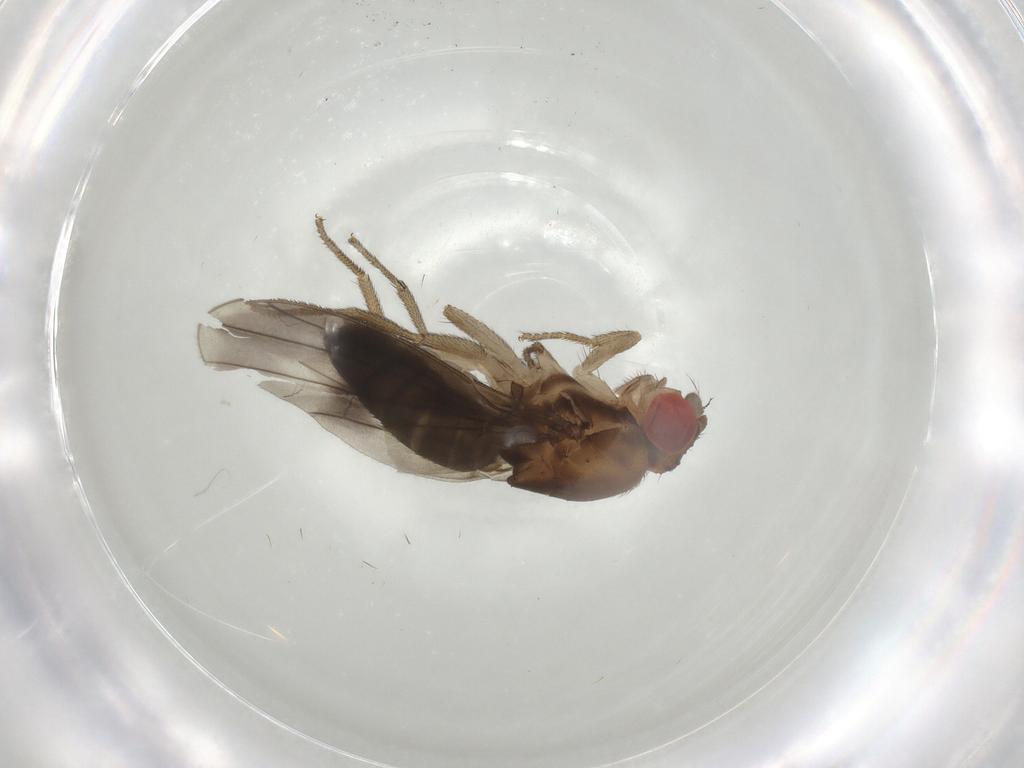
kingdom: Animalia
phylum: Arthropoda
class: Insecta
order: Diptera
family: Drosophilidae
